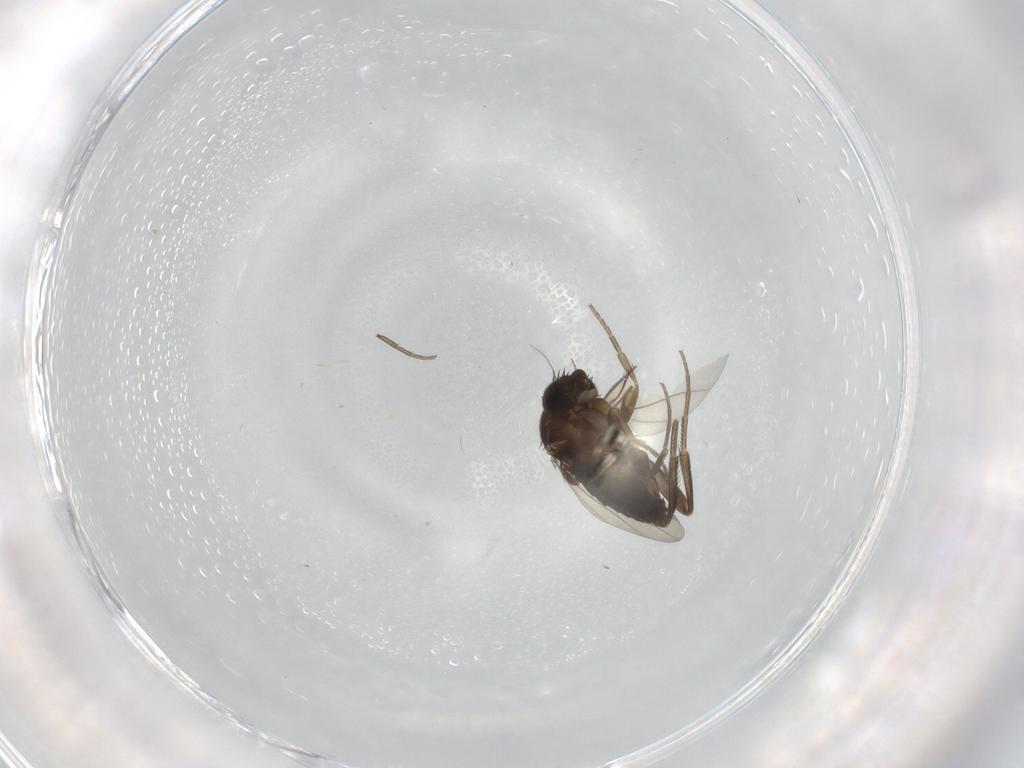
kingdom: Animalia
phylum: Arthropoda
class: Insecta
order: Diptera
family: Phoridae
